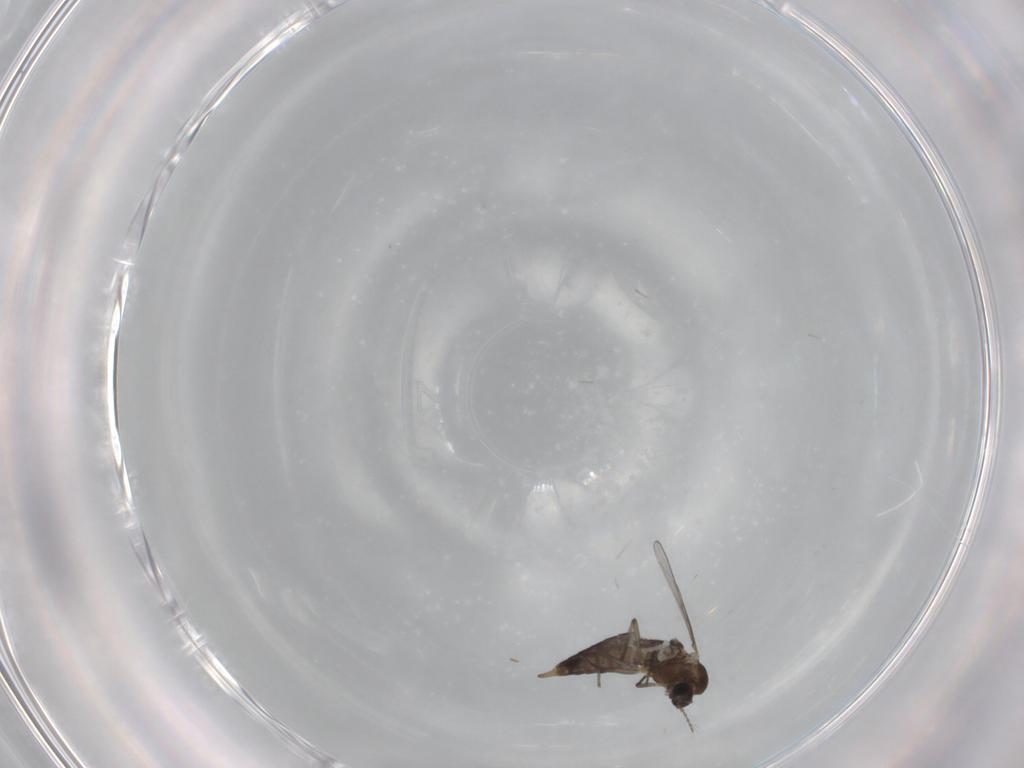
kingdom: Animalia
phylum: Arthropoda
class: Insecta
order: Diptera
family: Chironomidae
